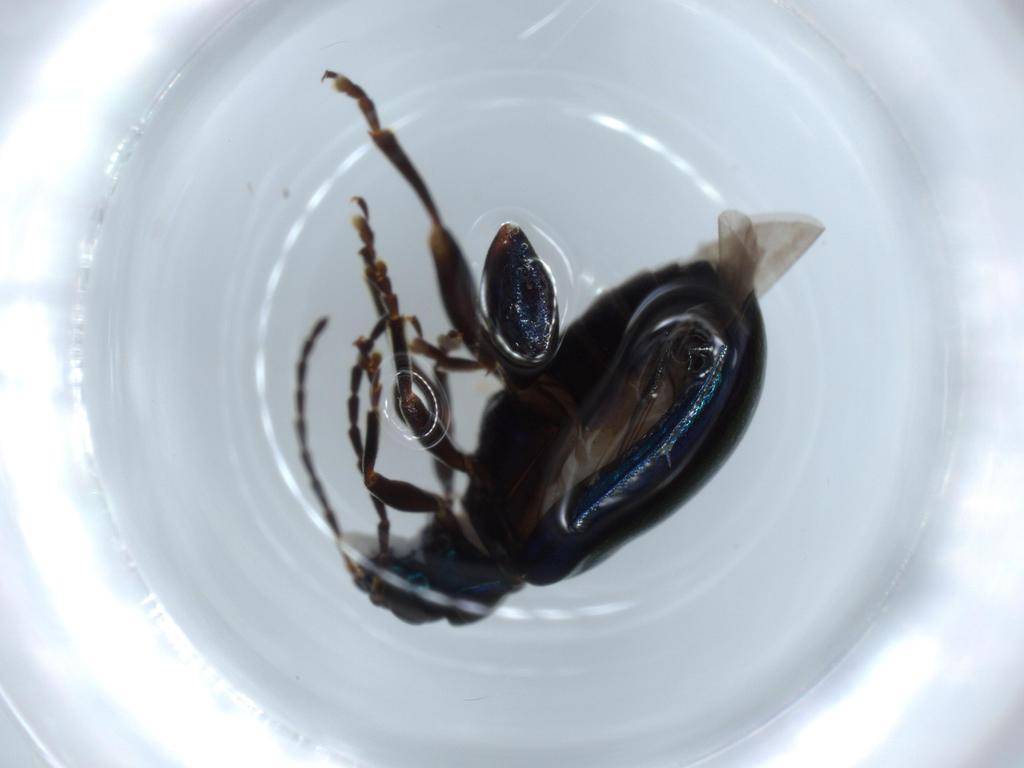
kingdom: Animalia
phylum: Arthropoda
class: Insecta
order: Coleoptera
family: Chrysomelidae
